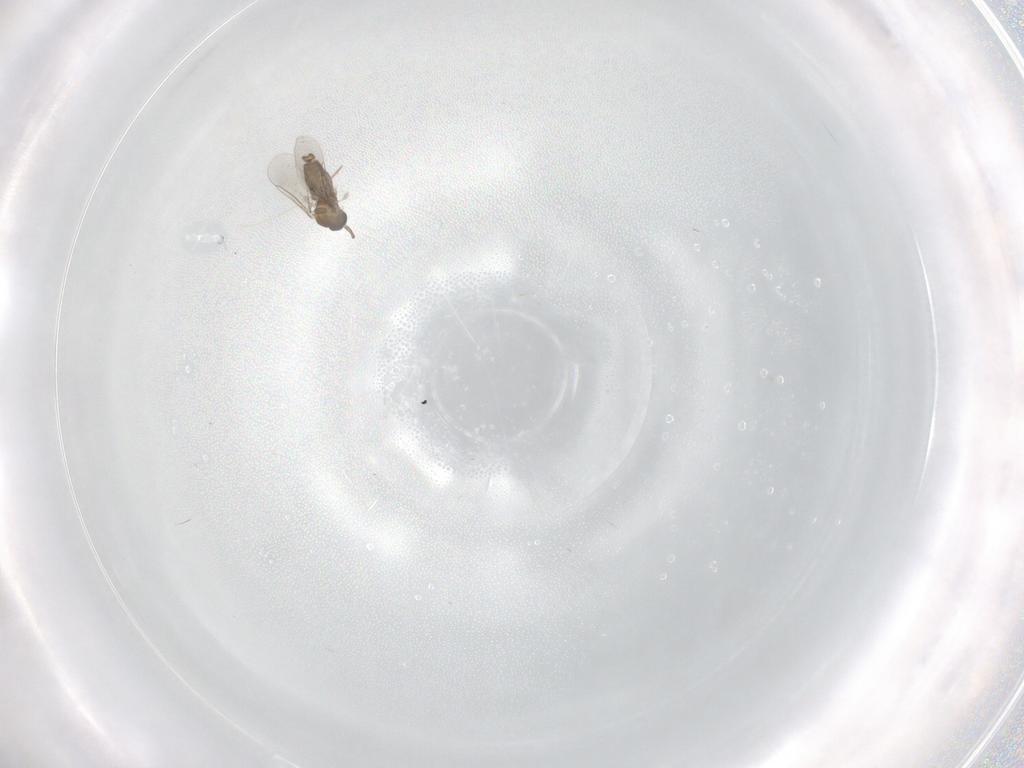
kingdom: Animalia
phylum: Arthropoda
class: Insecta
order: Diptera
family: Cecidomyiidae
